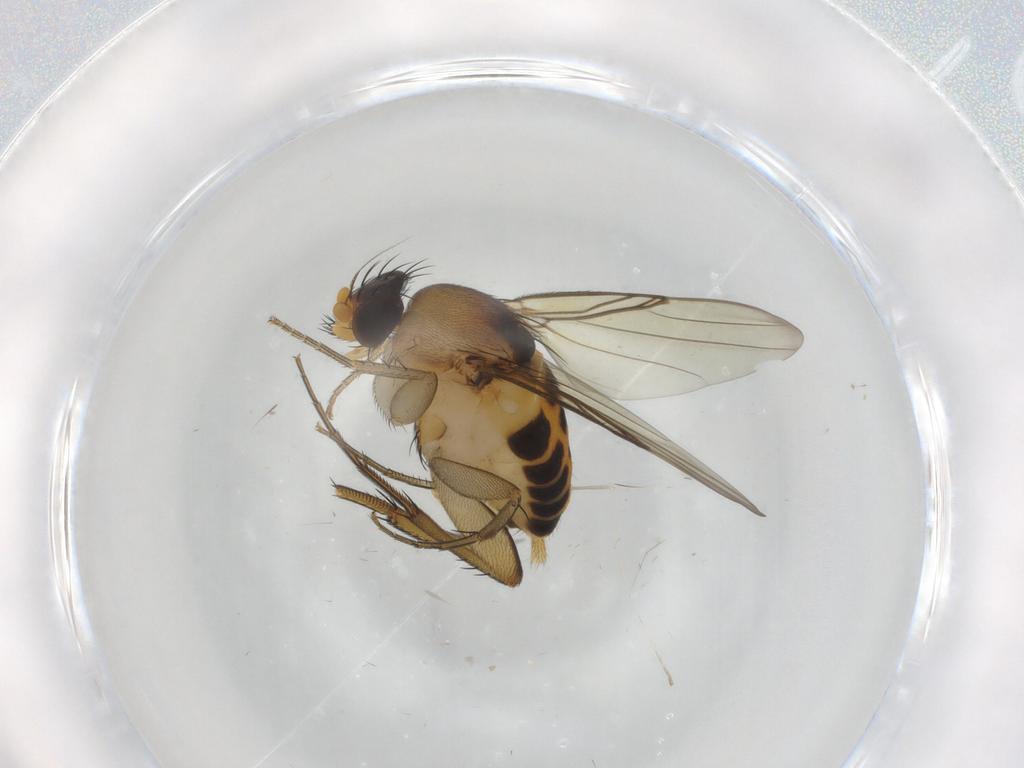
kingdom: Animalia
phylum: Arthropoda
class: Insecta
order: Diptera
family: Phoridae
